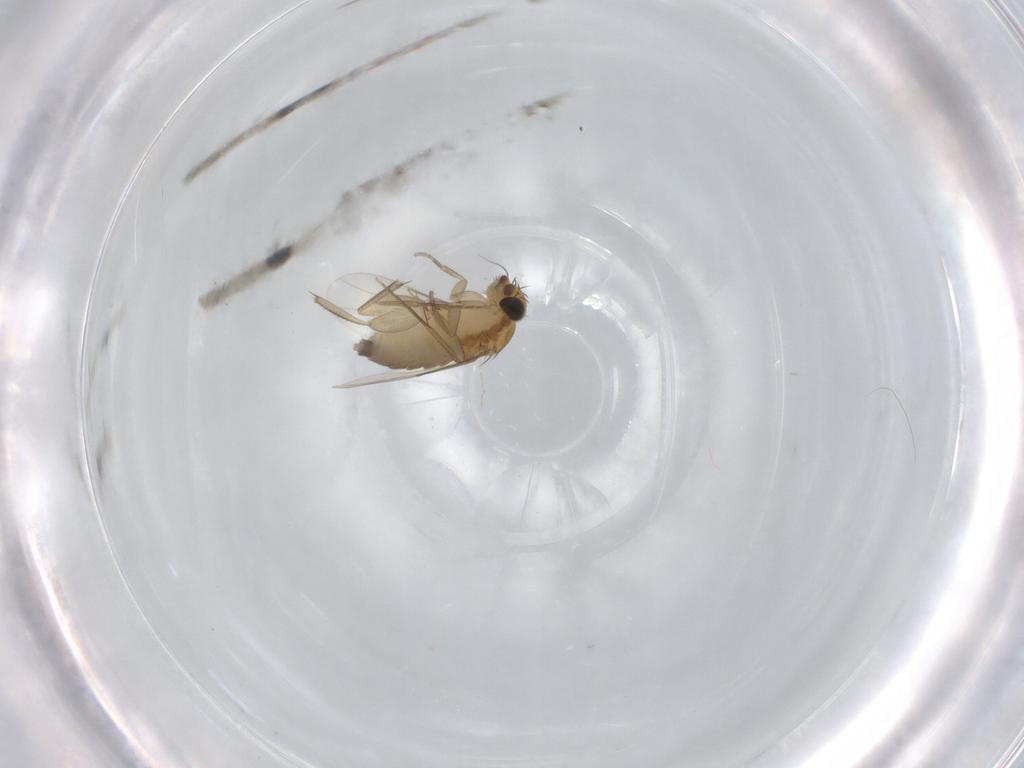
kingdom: Animalia
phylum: Arthropoda
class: Insecta
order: Diptera
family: Phoridae
